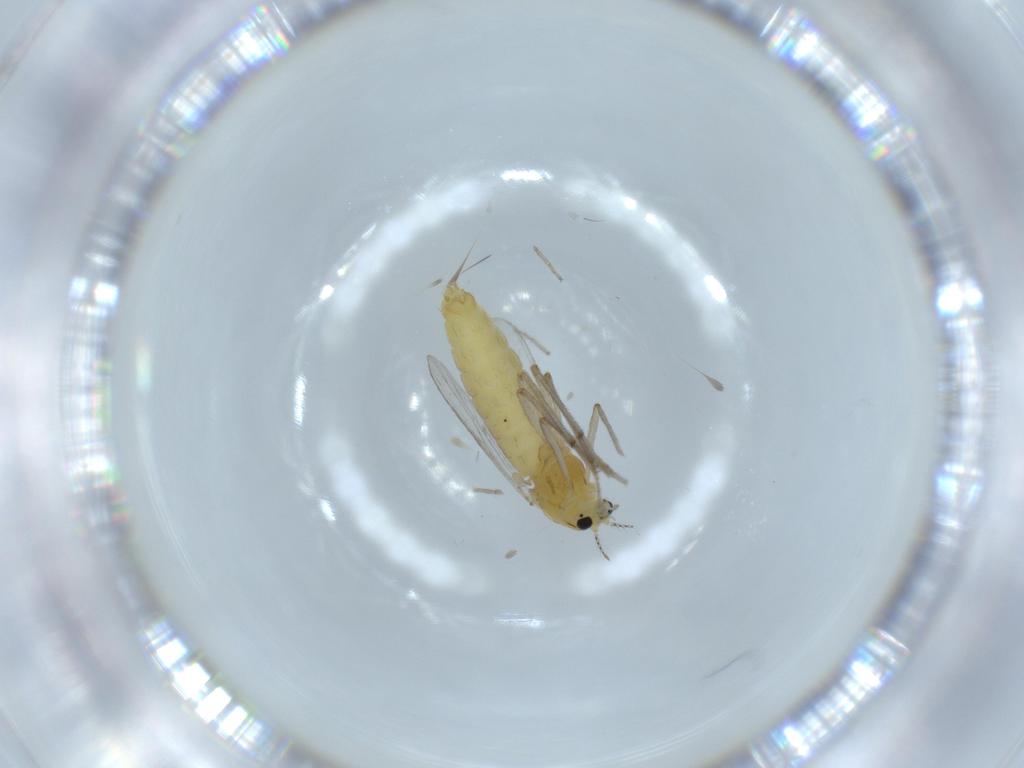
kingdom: Animalia
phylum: Arthropoda
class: Insecta
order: Diptera
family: Chironomidae
